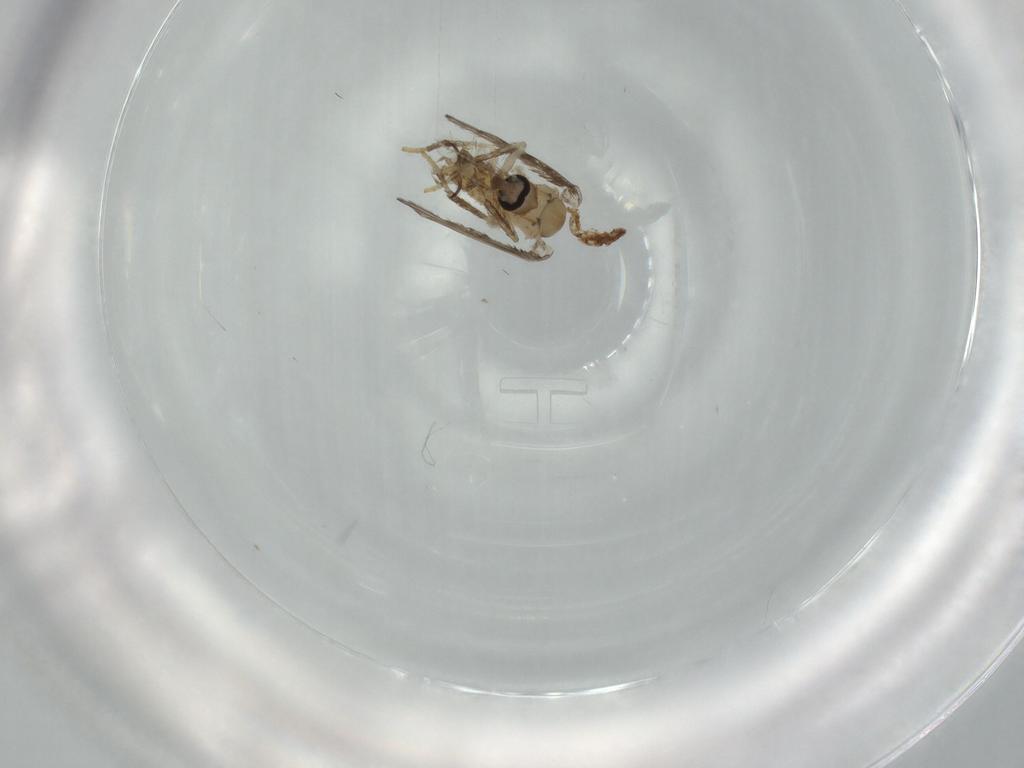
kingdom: Animalia
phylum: Arthropoda
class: Insecta
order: Diptera
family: Psychodidae
